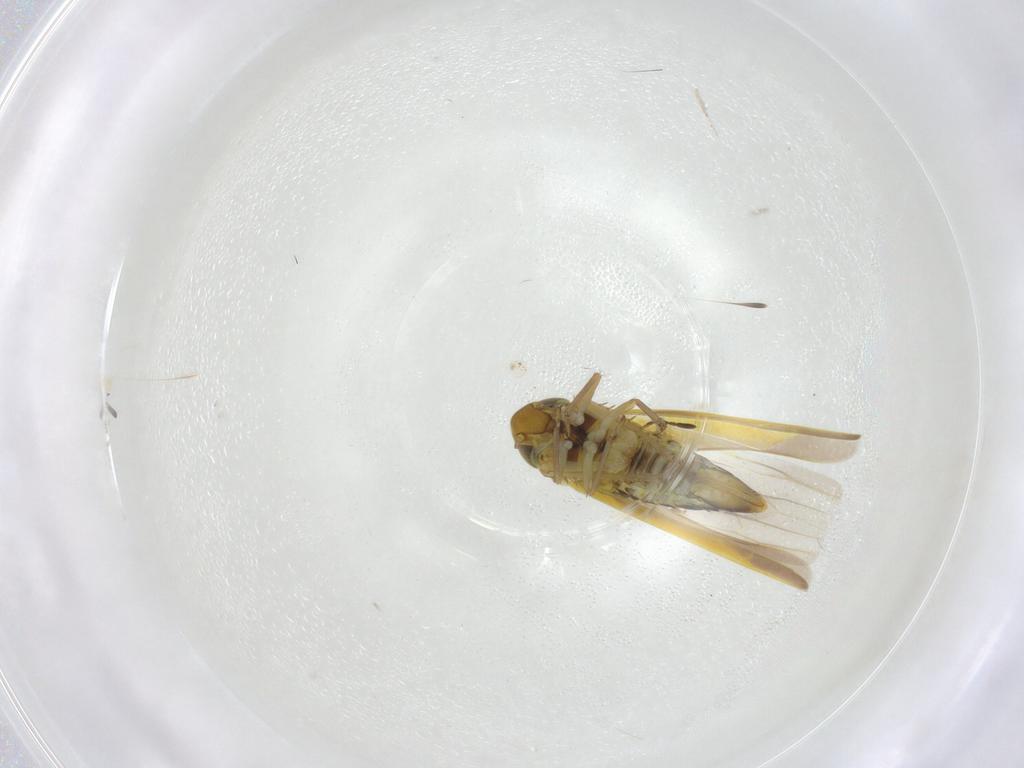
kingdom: Animalia
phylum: Arthropoda
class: Insecta
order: Hemiptera
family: Cicadellidae
